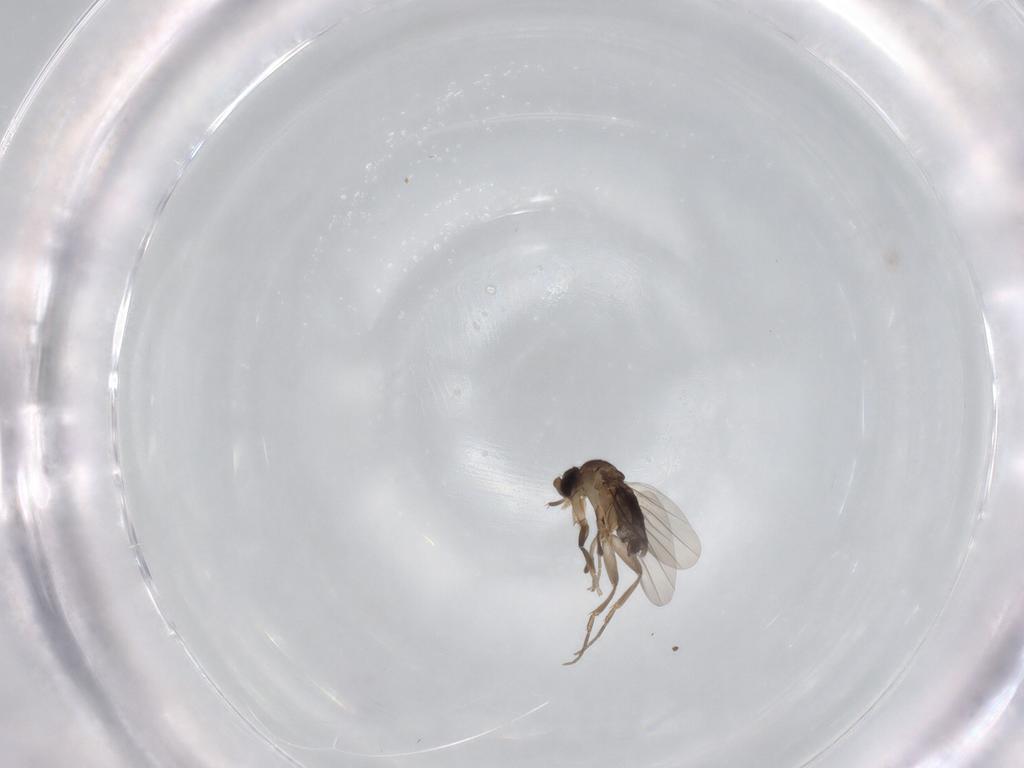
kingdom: Animalia
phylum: Arthropoda
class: Insecta
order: Diptera
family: Phoridae
